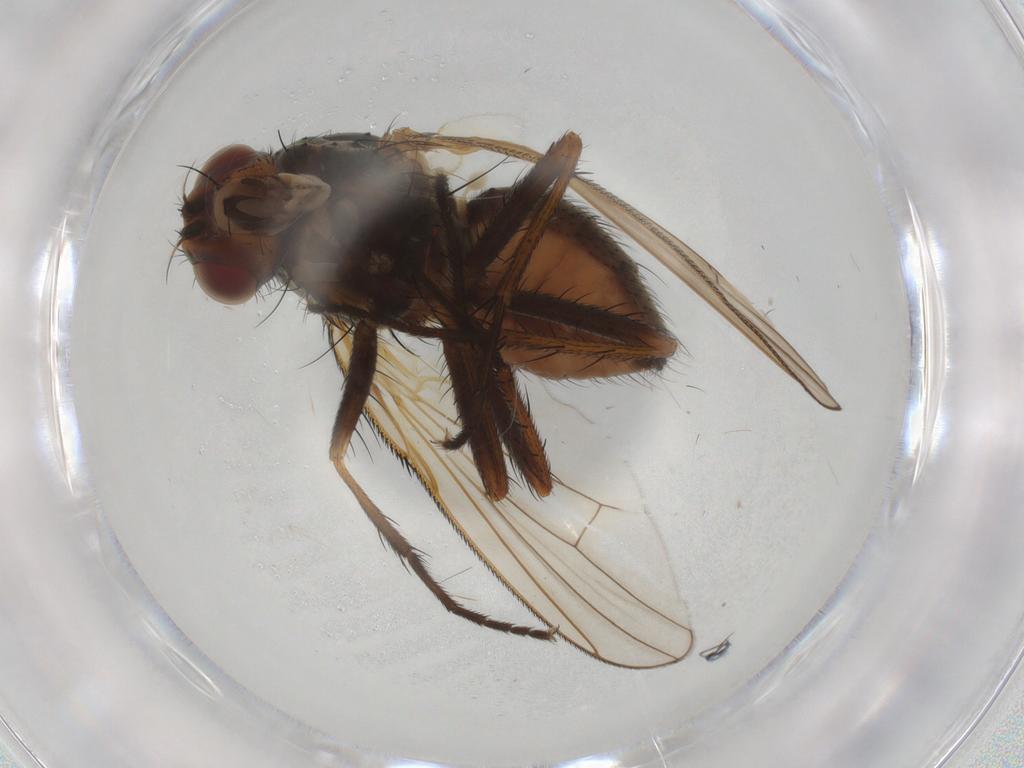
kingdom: Animalia
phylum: Arthropoda
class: Insecta
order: Diptera
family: Anthomyiidae
